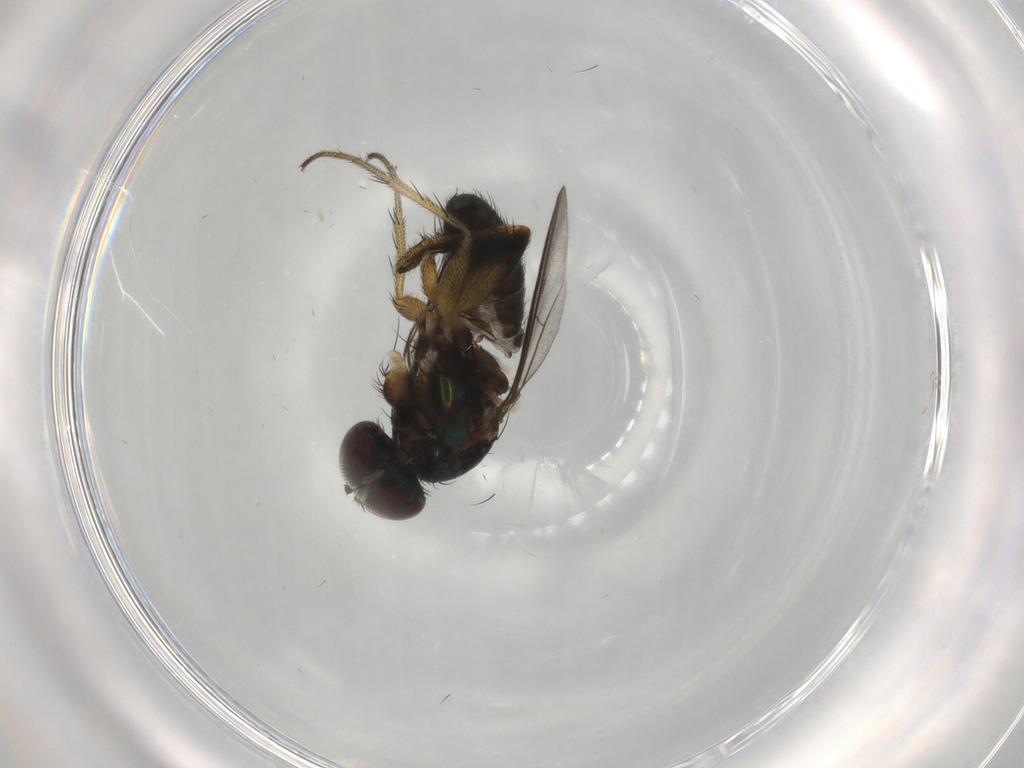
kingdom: Animalia
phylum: Arthropoda
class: Insecta
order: Diptera
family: Dolichopodidae
